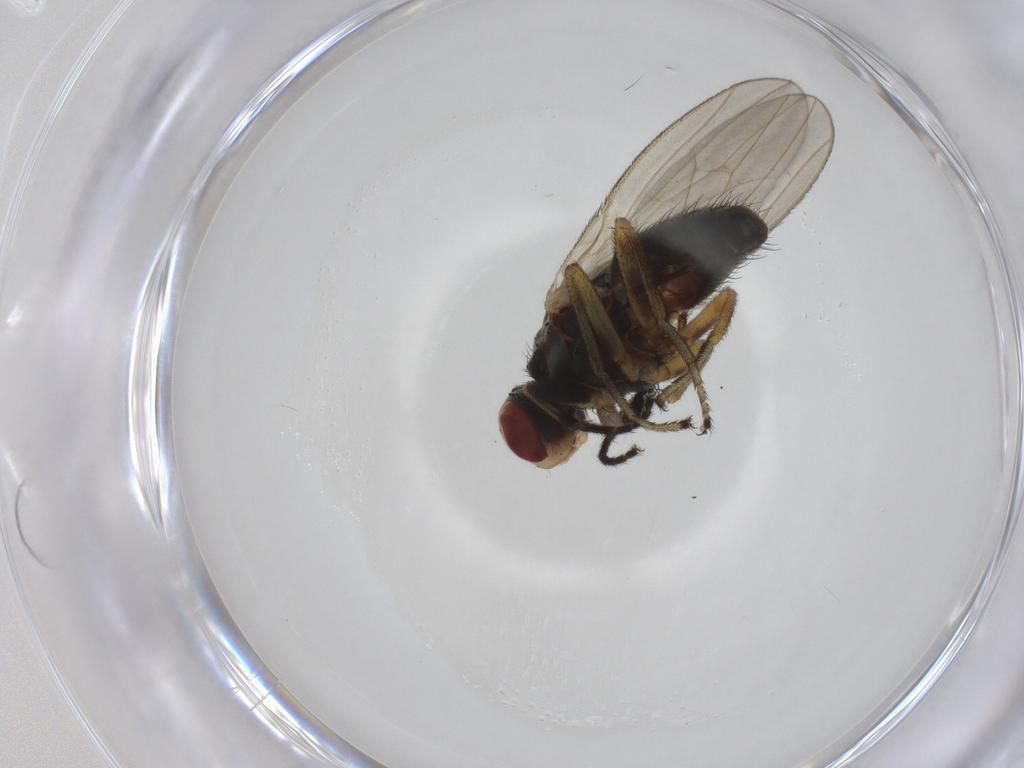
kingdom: Animalia
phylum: Arthropoda
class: Insecta
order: Diptera
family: Ulidiidae
